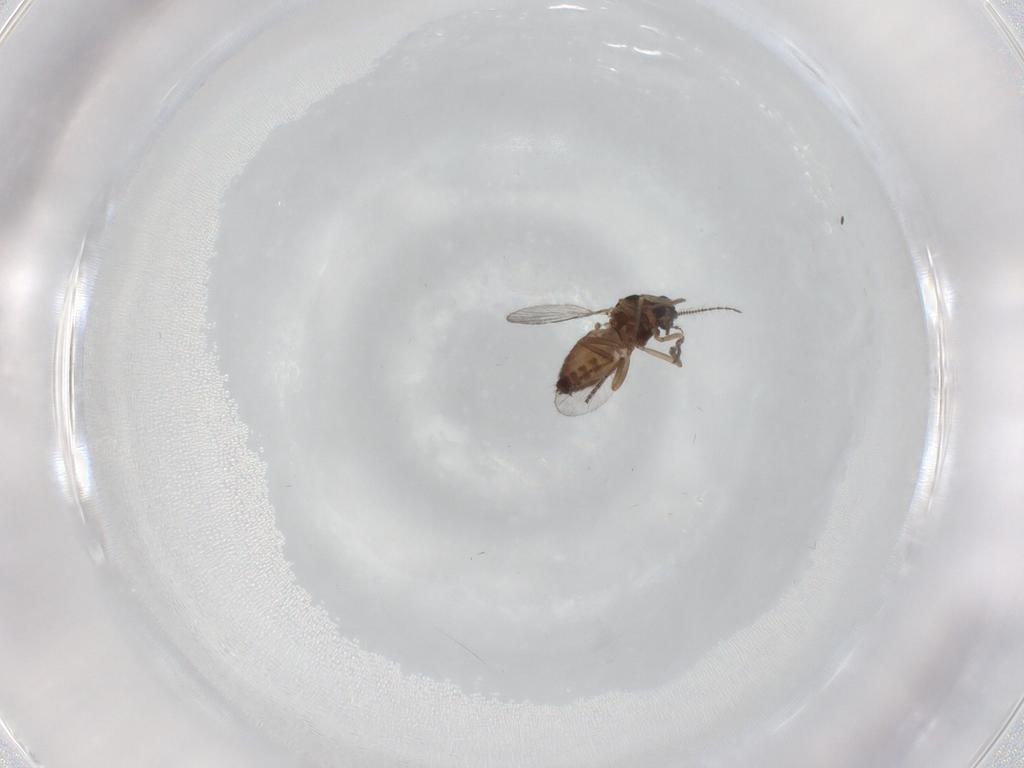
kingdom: Animalia
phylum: Arthropoda
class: Insecta
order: Diptera
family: Sciaridae
